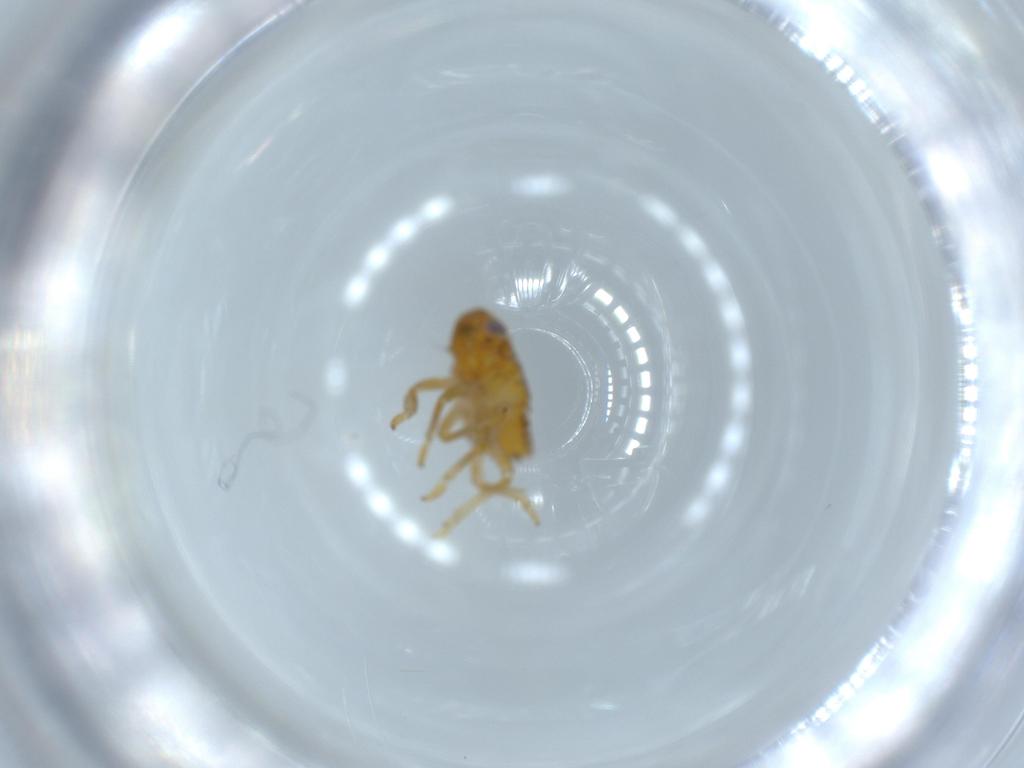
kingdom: Animalia
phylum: Arthropoda
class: Insecta
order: Hemiptera
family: Issidae
